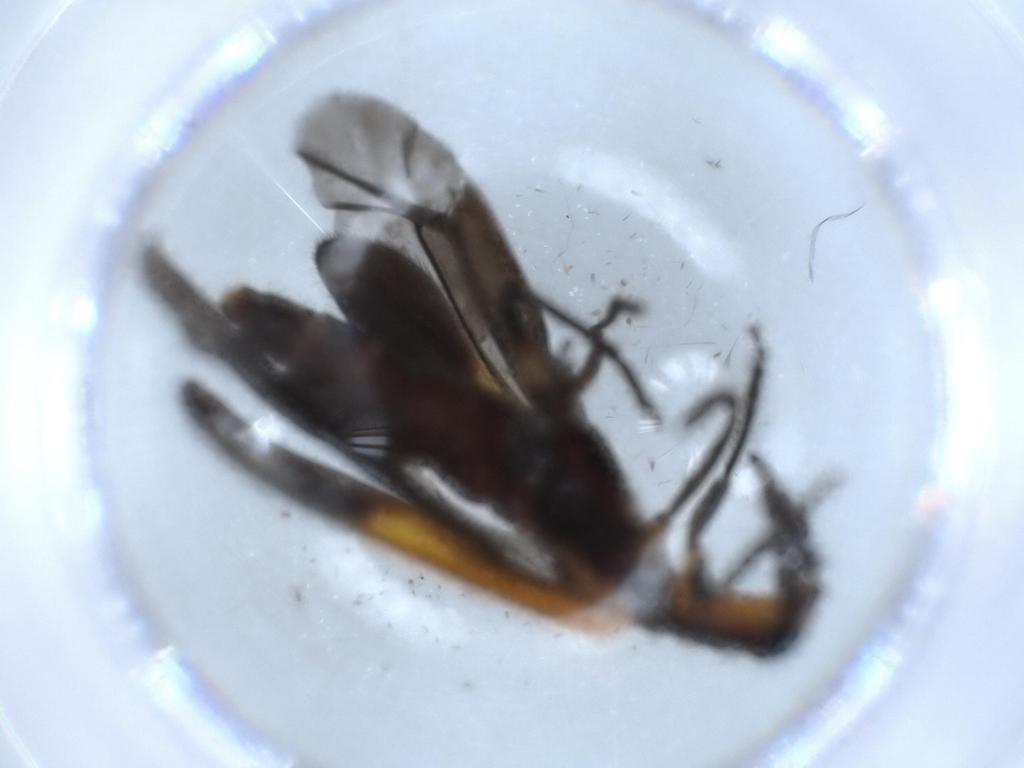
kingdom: Animalia
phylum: Arthropoda
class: Insecta
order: Coleoptera
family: Cleridae
